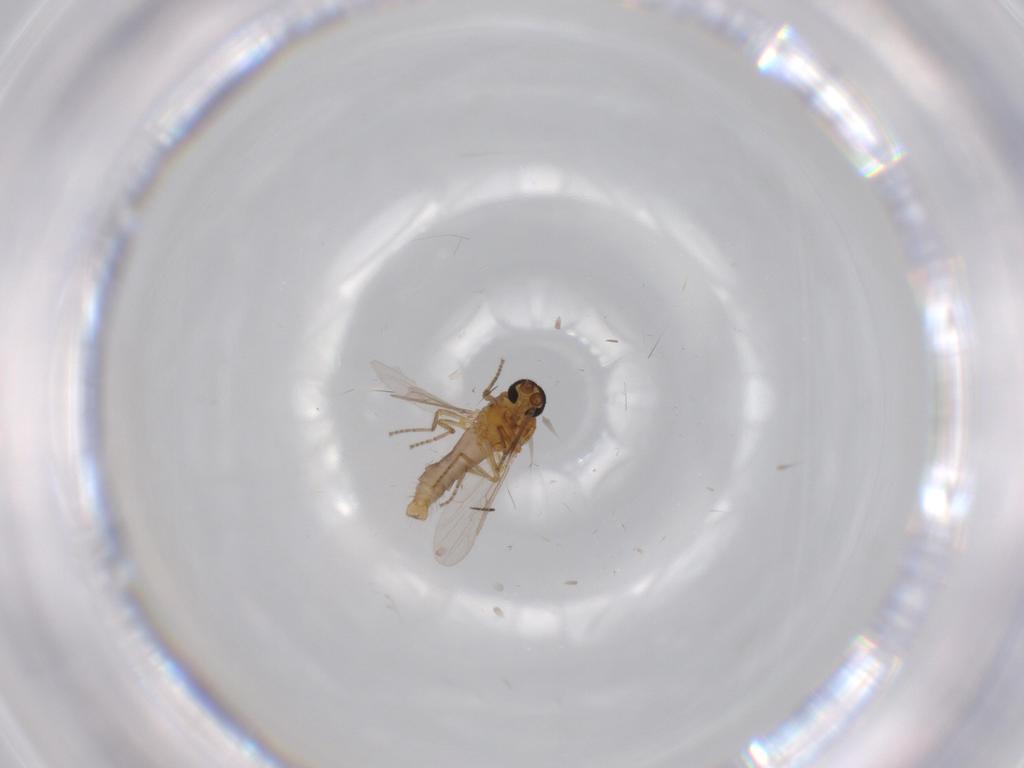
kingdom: Animalia
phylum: Arthropoda
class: Insecta
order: Diptera
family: Ceratopogonidae
